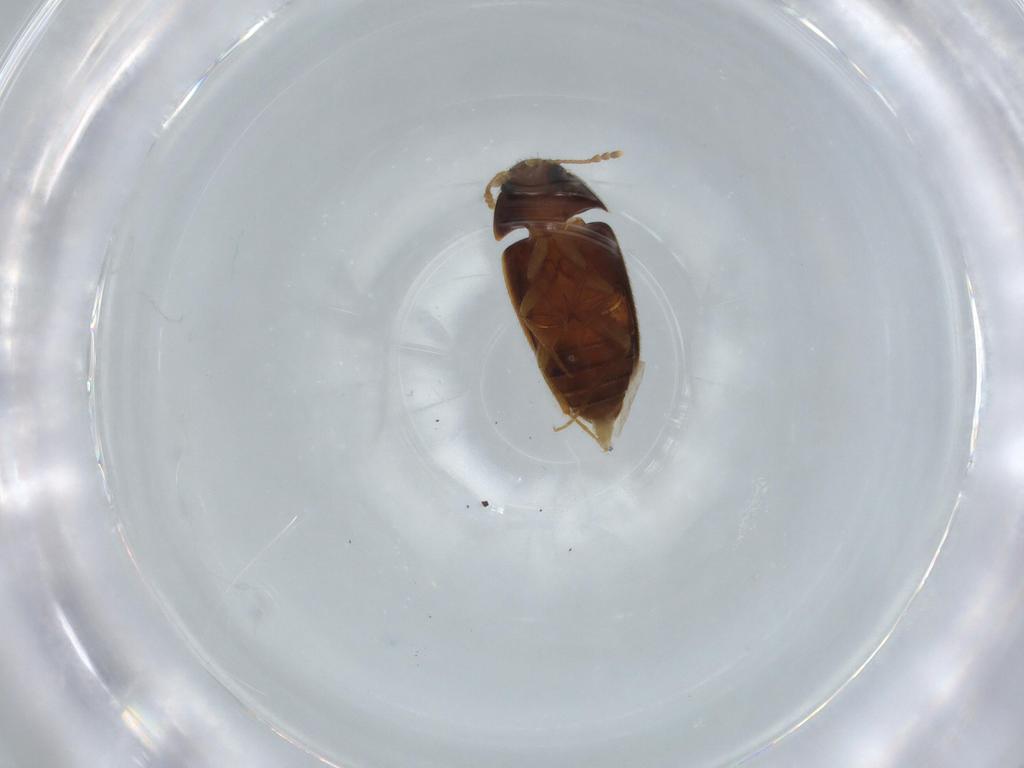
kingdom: Animalia
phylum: Arthropoda
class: Insecta
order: Coleoptera
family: Mycetophagidae
